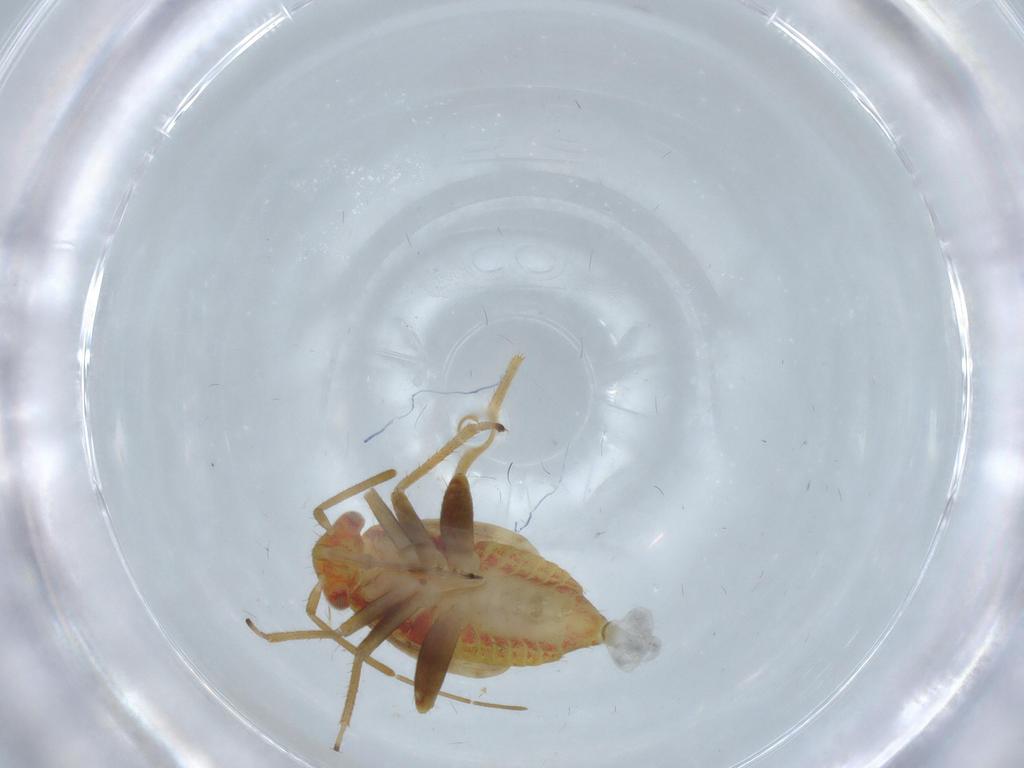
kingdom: Animalia
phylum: Arthropoda
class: Insecta
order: Hemiptera
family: Miridae
